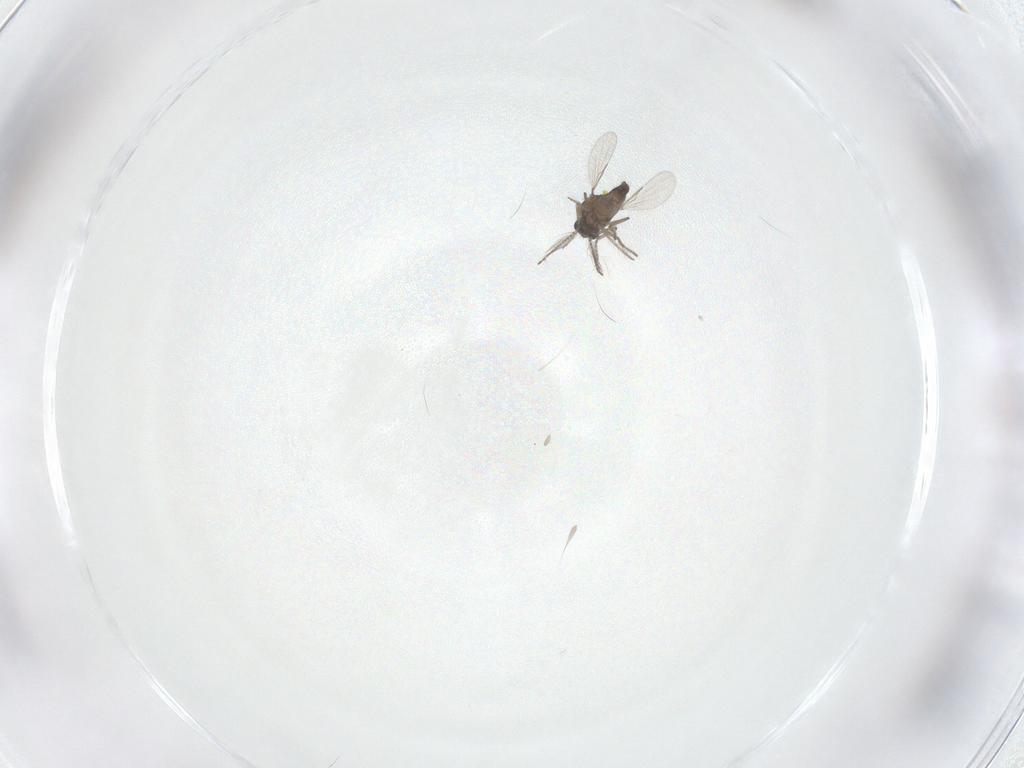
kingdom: Animalia
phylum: Arthropoda
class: Insecta
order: Diptera
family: Ceratopogonidae
